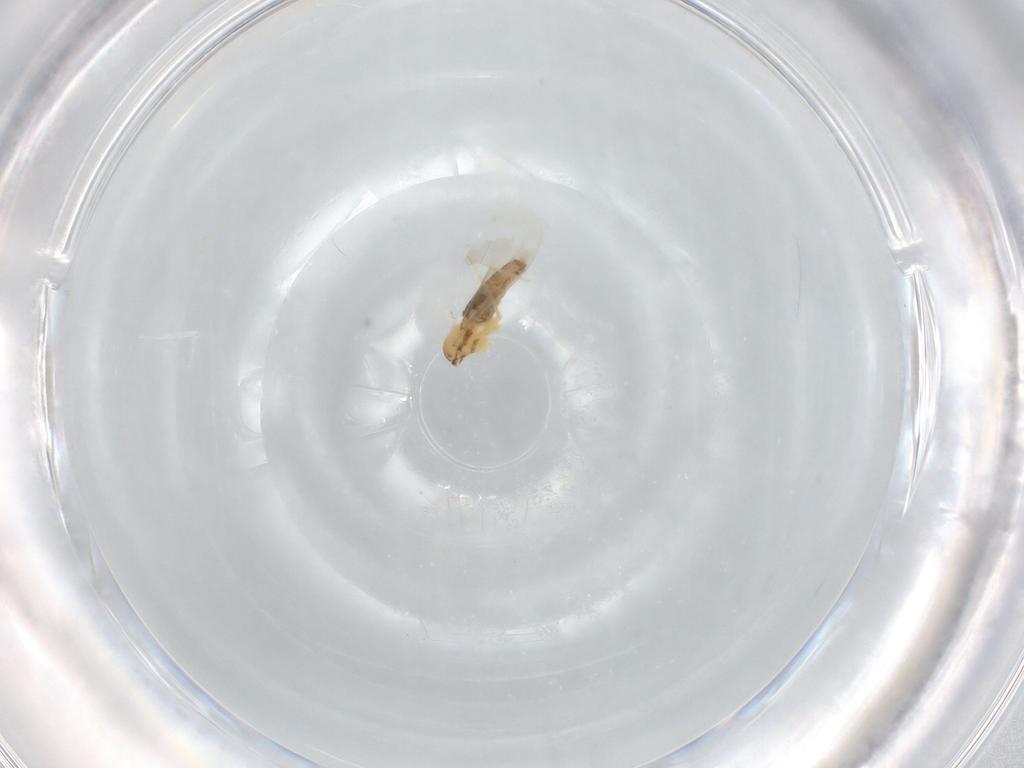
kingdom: Animalia
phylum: Arthropoda
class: Insecta
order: Diptera
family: Cecidomyiidae
